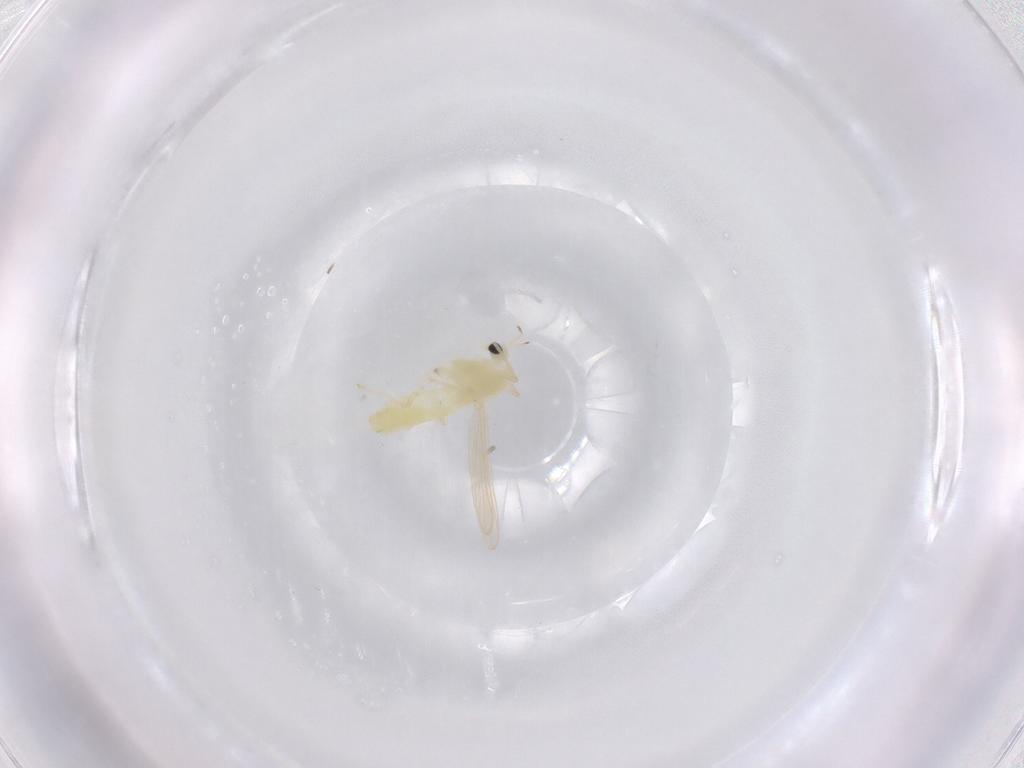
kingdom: Animalia
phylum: Arthropoda
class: Insecta
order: Diptera
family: Chironomidae
